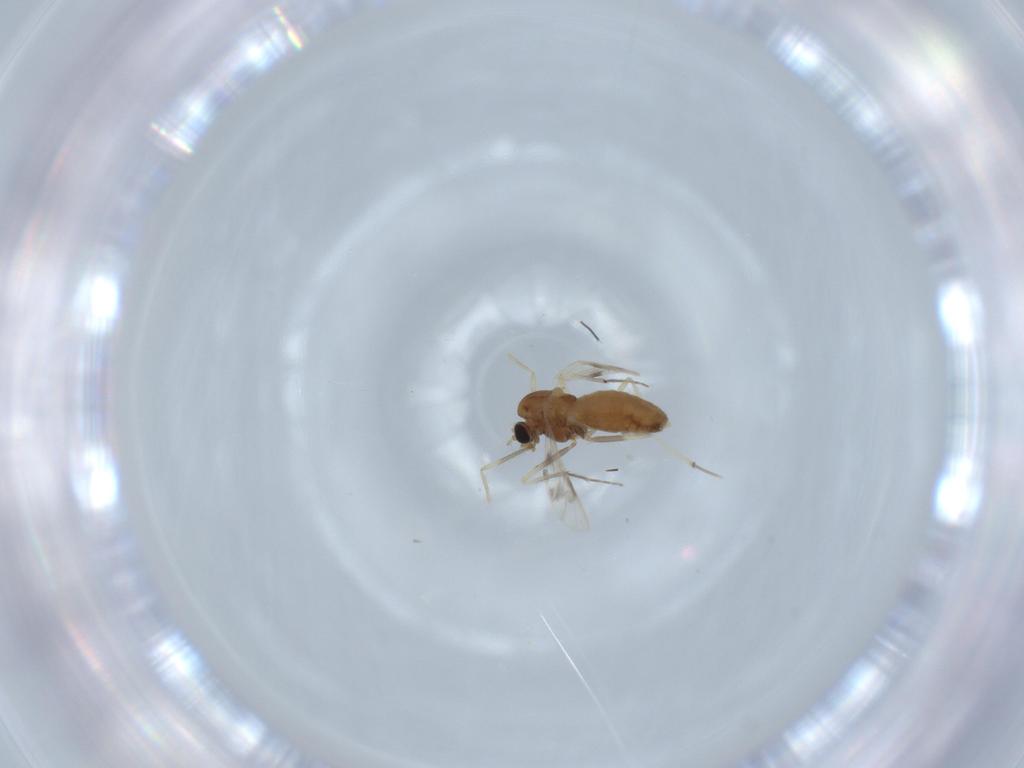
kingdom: Animalia
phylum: Arthropoda
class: Insecta
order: Diptera
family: Chironomidae
